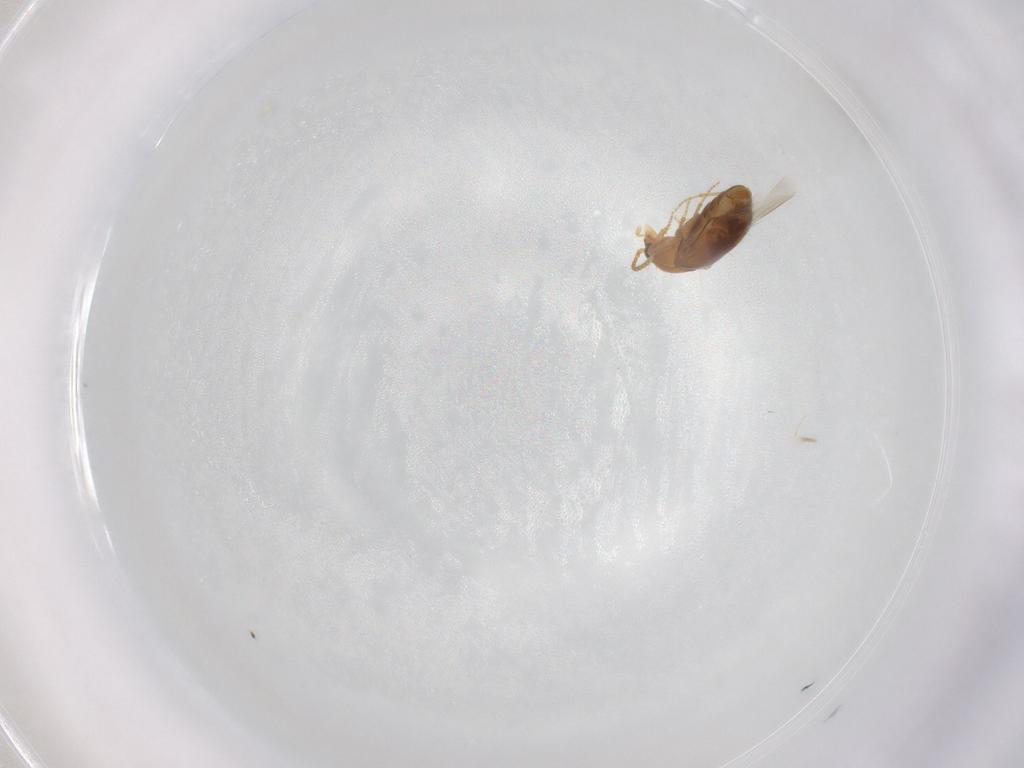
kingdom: Animalia
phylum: Arthropoda
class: Insecta
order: Coleoptera
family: Carabidae
